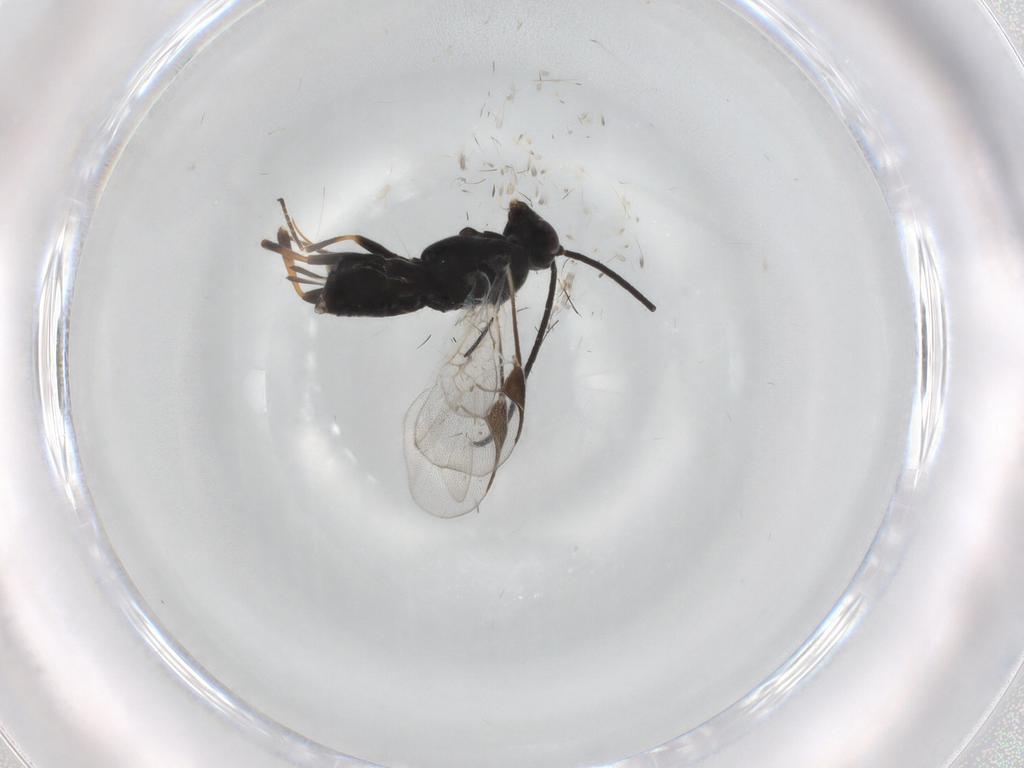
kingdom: Animalia
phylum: Arthropoda
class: Insecta
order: Hymenoptera
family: Braconidae
